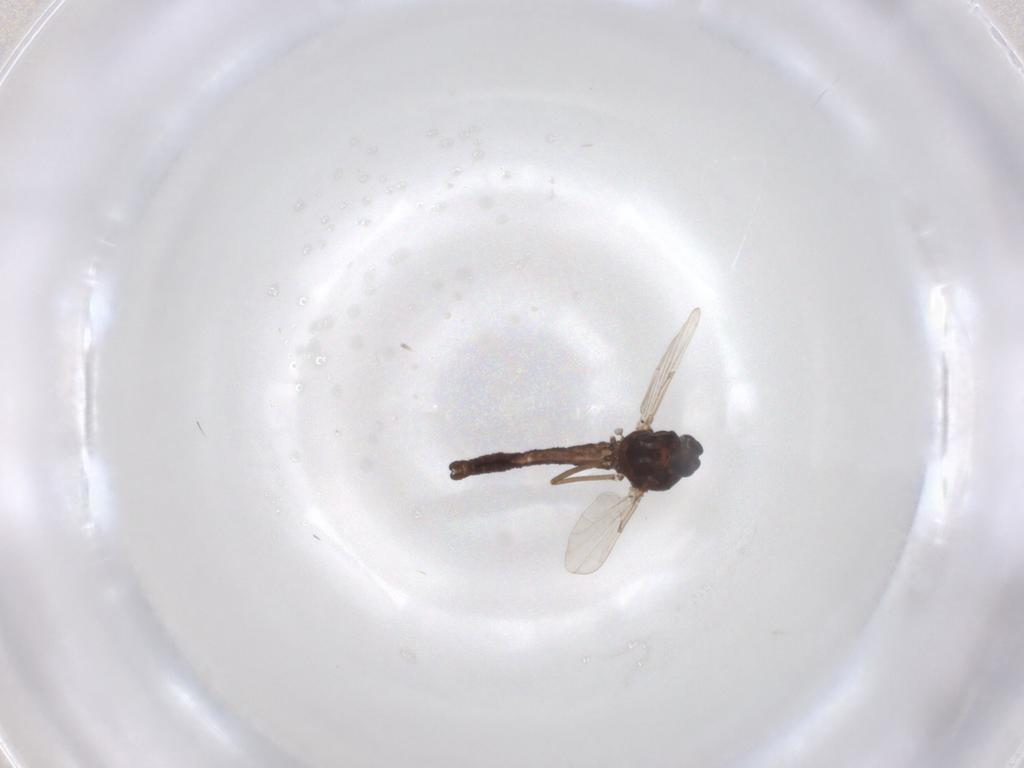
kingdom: Animalia
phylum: Arthropoda
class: Insecta
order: Diptera
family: Ceratopogonidae
